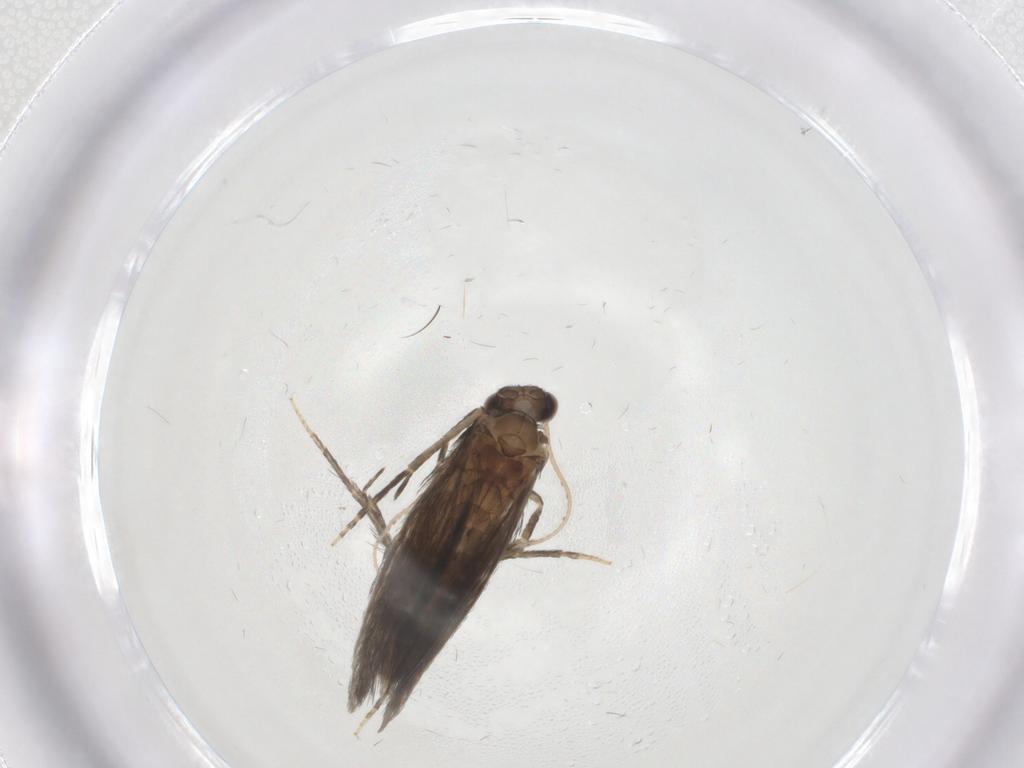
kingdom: Animalia
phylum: Arthropoda
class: Insecta
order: Trichoptera
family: Hydroptilidae
